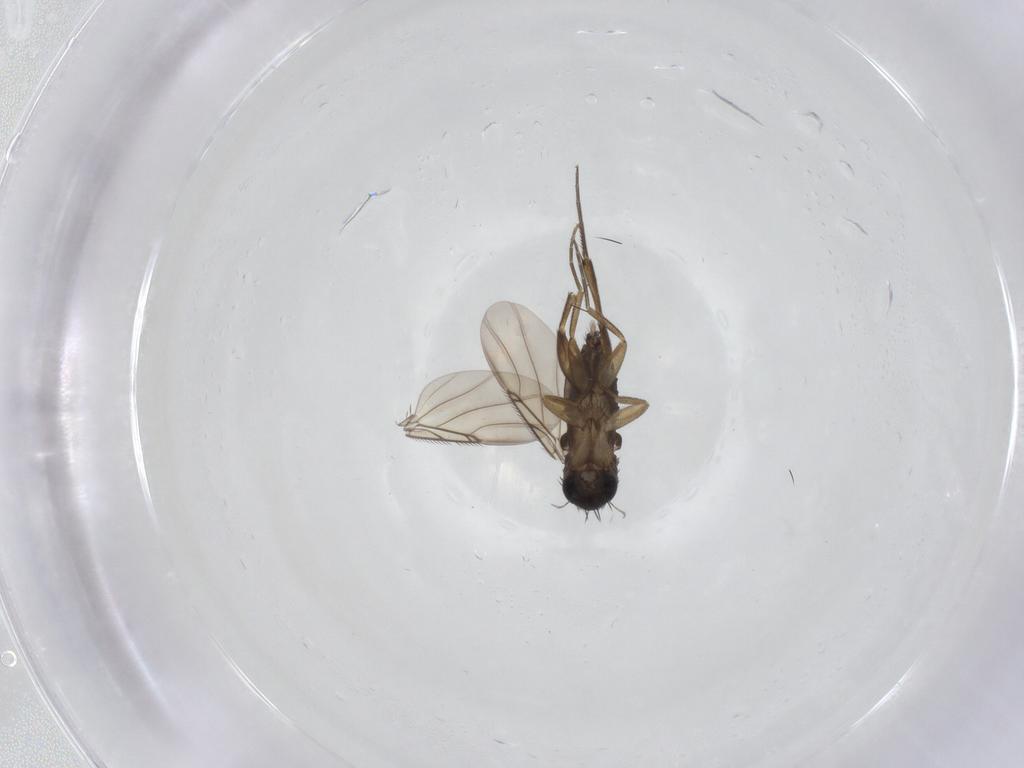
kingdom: Animalia
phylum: Arthropoda
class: Insecta
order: Diptera
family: Phoridae
